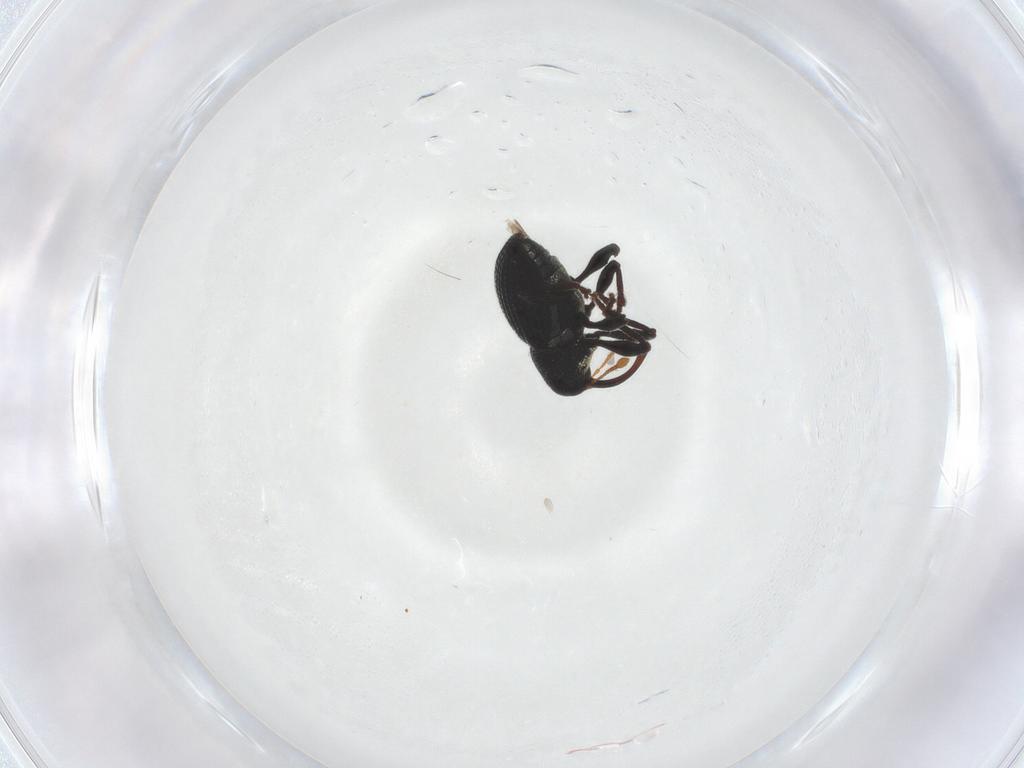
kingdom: Animalia
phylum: Arthropoda
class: Insecta
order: Coleoptera
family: Curculionidae
